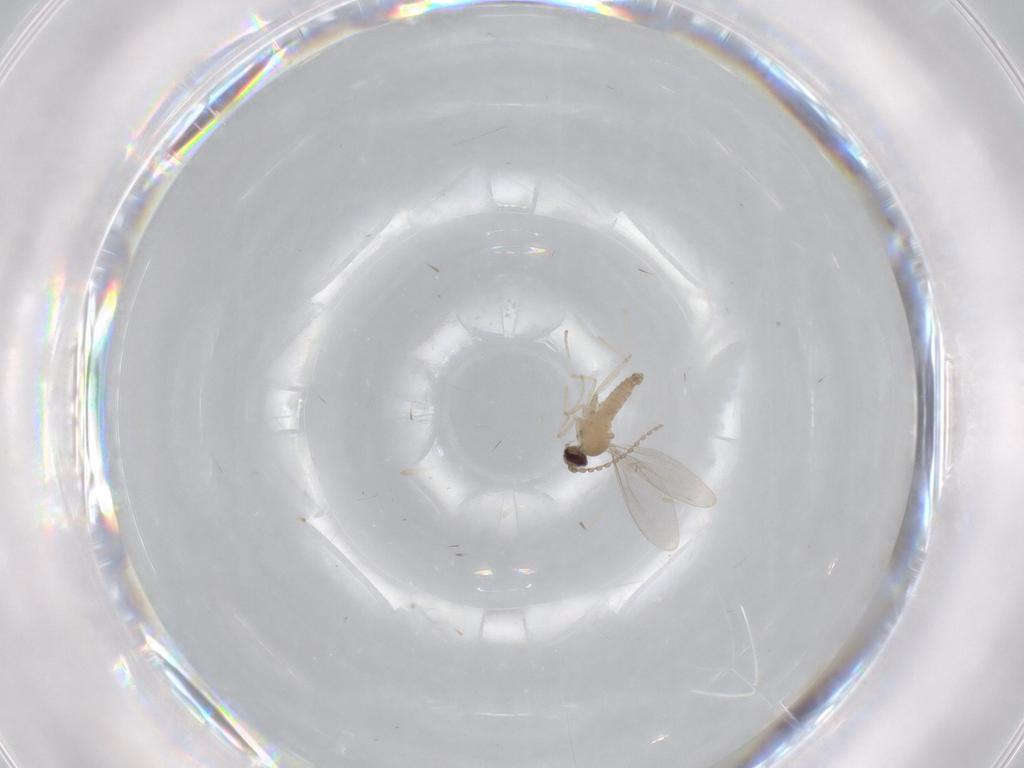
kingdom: Animalia
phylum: Arthropoda
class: Insecta
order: Diptera
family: Cecidomyiidae
